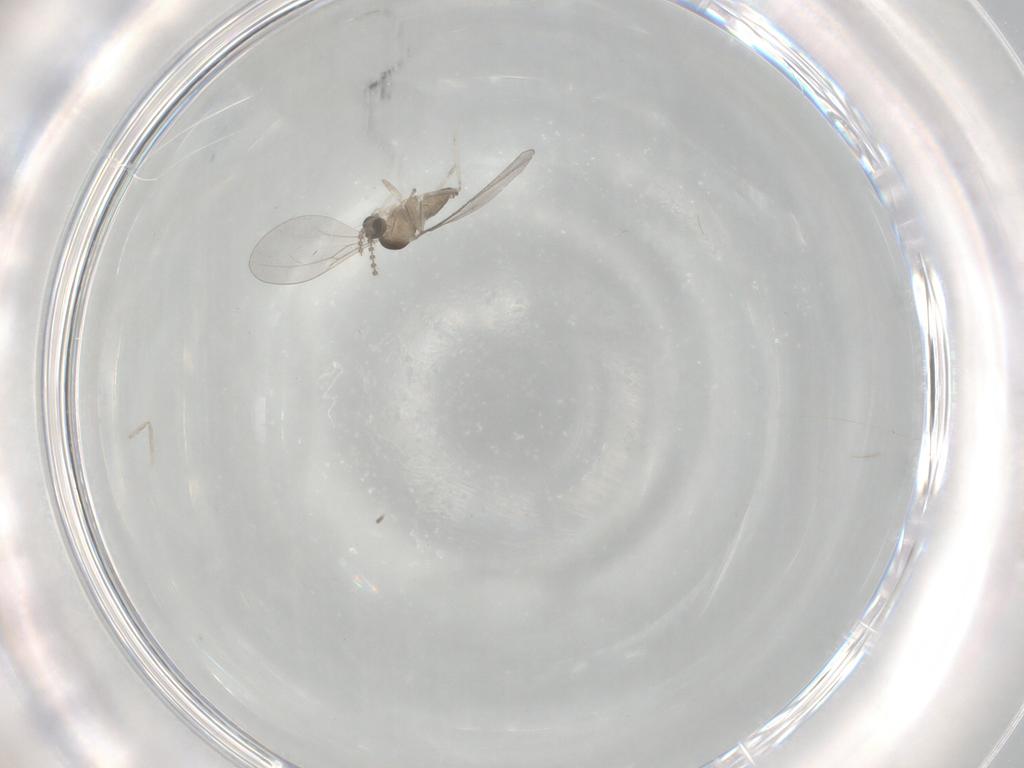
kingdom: Animalia
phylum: Arthropoda
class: Insecta
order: Diptera
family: Cecidomyiidae
